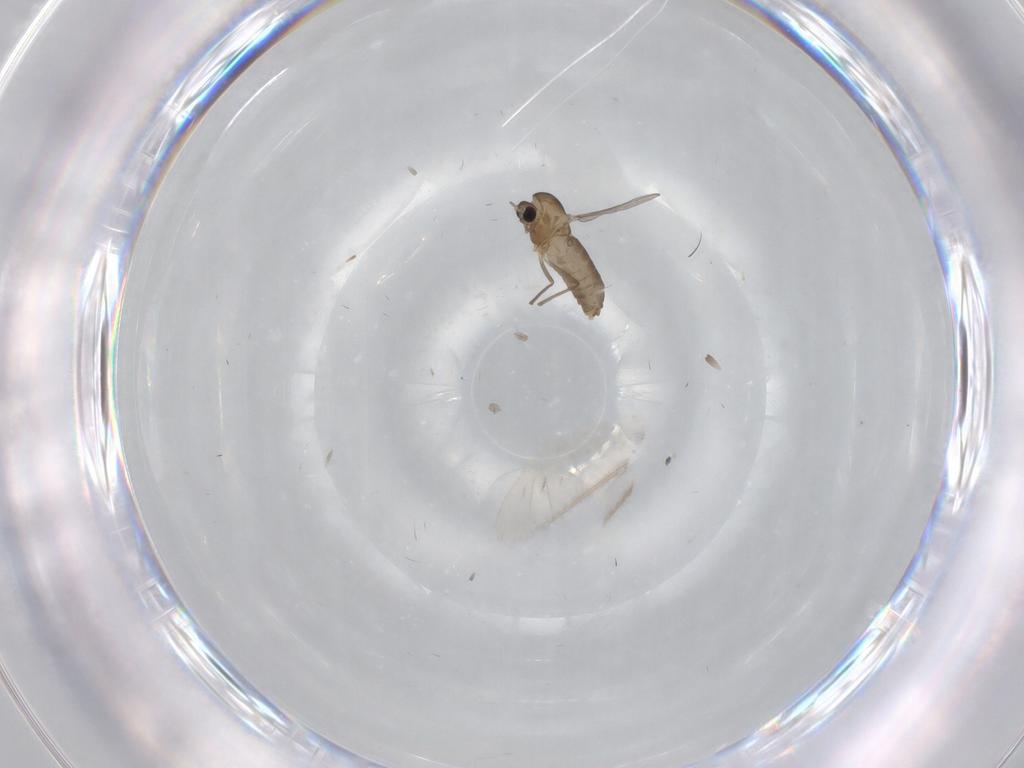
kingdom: Animalia
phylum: Arthropoda
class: Insecta
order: Diptera
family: Chironomidae
